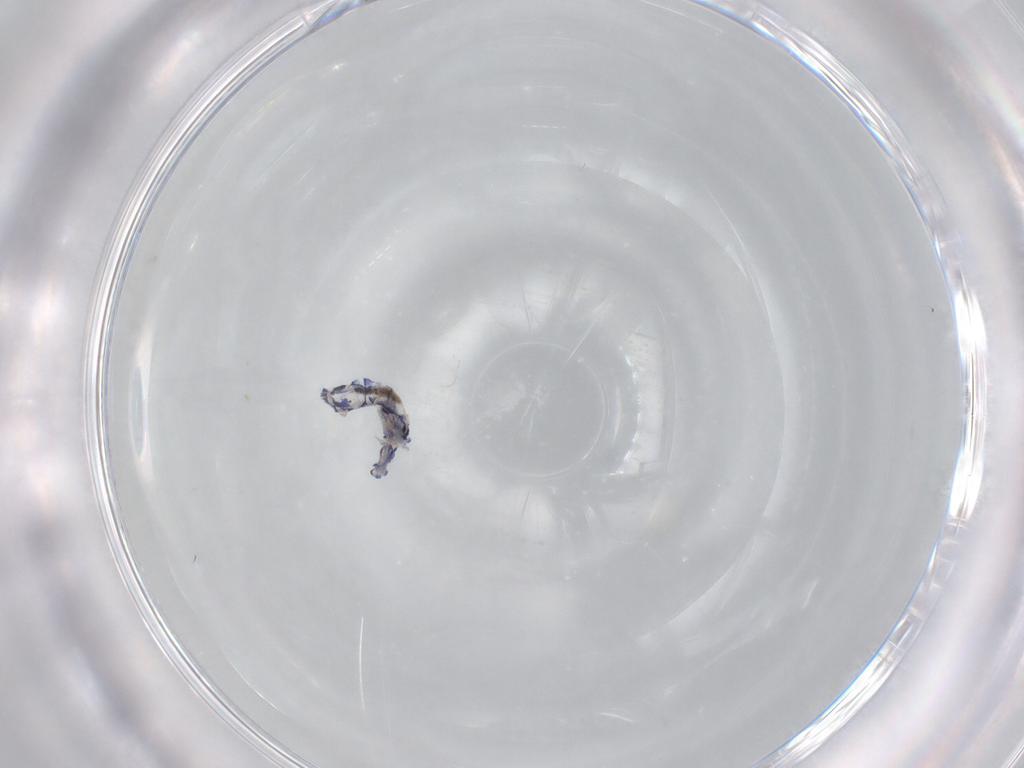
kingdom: Animalia
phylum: Arthropoda
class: Collembola
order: Entomobryomorpha
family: Entomobryidae
